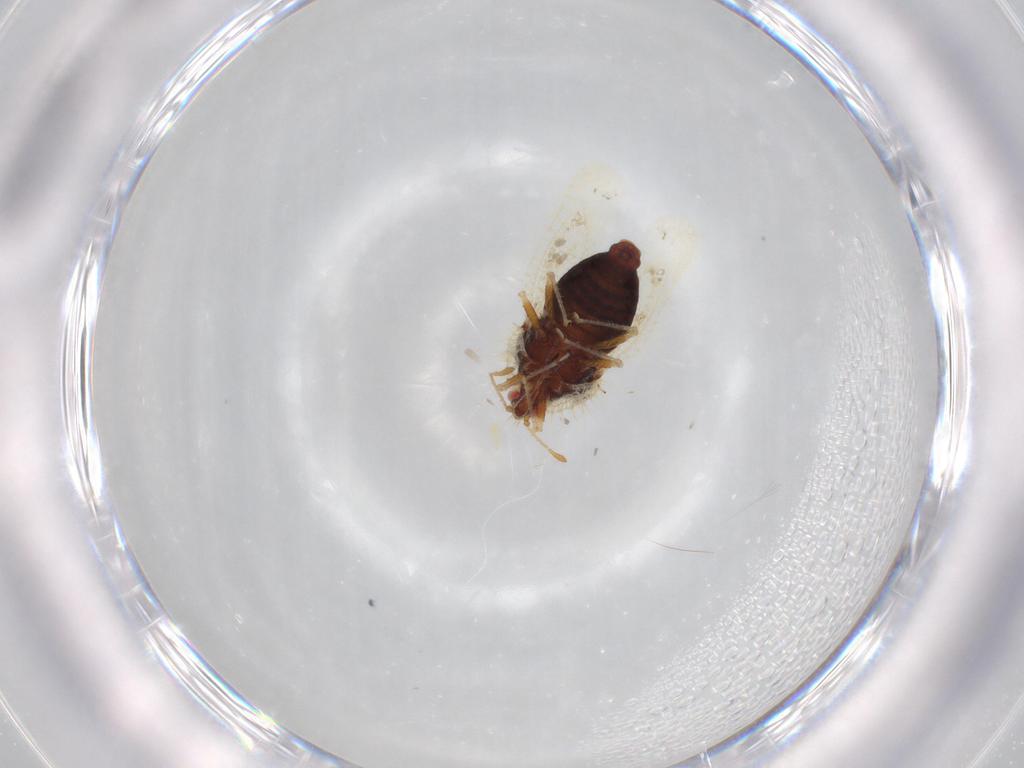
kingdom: Animalia
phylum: Arthropoda
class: Insecta
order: Hemiptera
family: Tingidae
